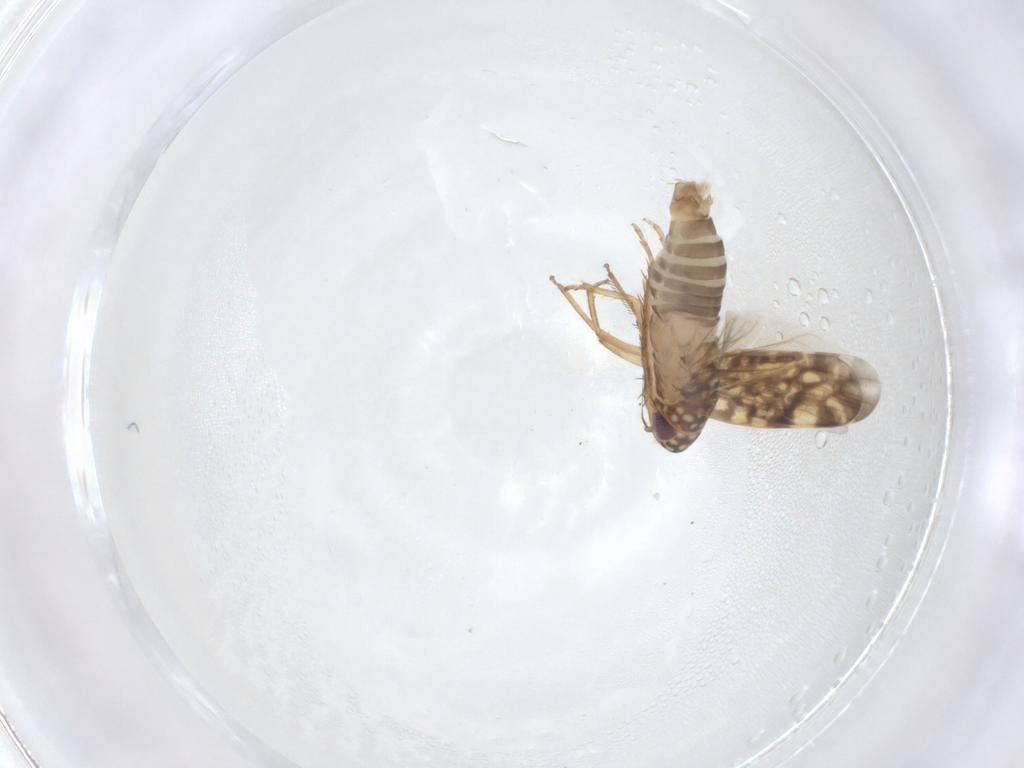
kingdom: Animalia
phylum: Arthropoda
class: Insecta
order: Hemiptera
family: Cicadellidae
